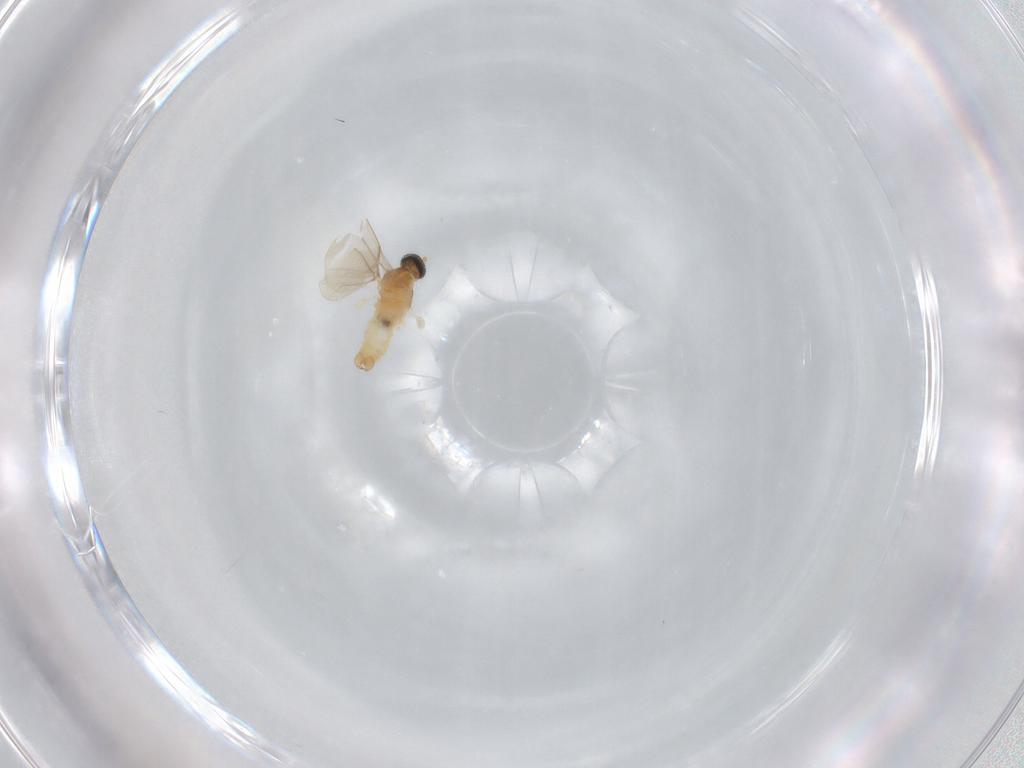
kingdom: Animalia
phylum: Arthropoda
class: Insecta
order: Diptera
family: Cecidomyiidae
